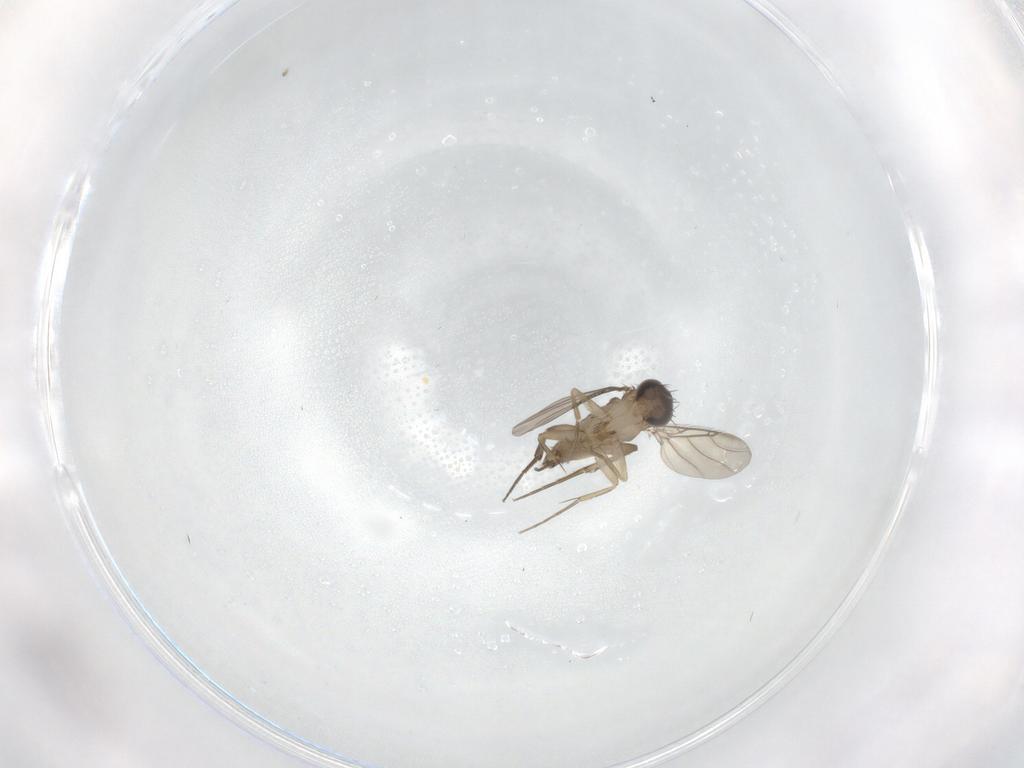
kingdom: Animalia
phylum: Arthropoda
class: Insecta
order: Diptera
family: Phoridae
